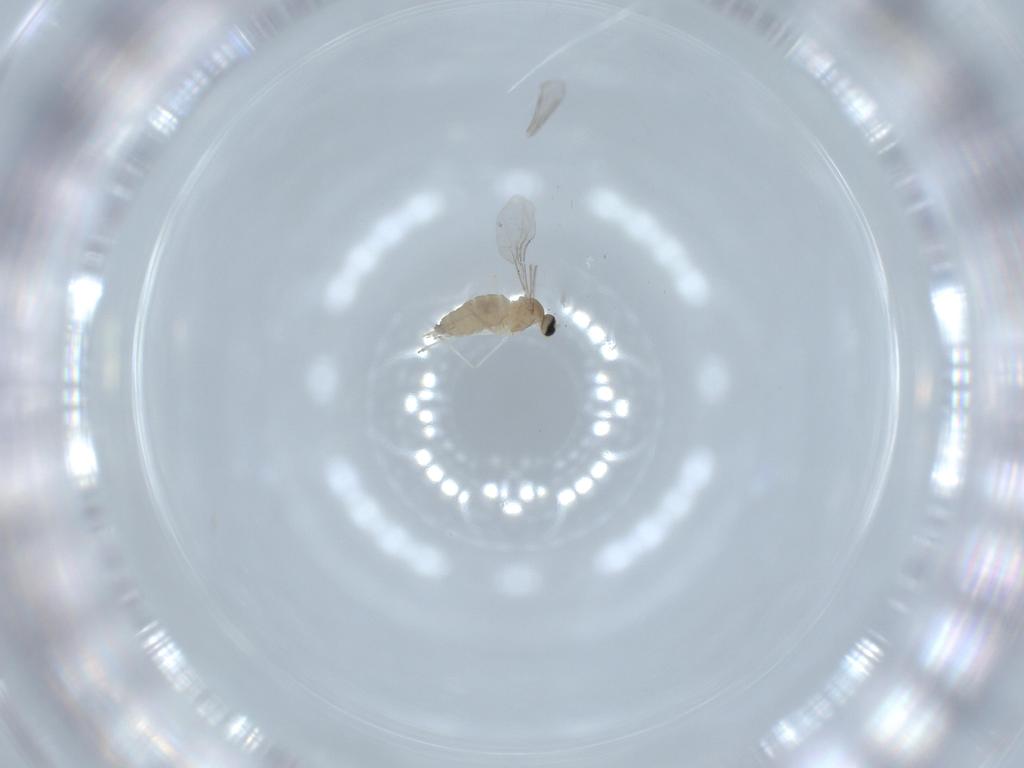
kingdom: Animalia
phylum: Arthropoda
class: Insecta
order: Diptera
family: Cecidomyiidae
